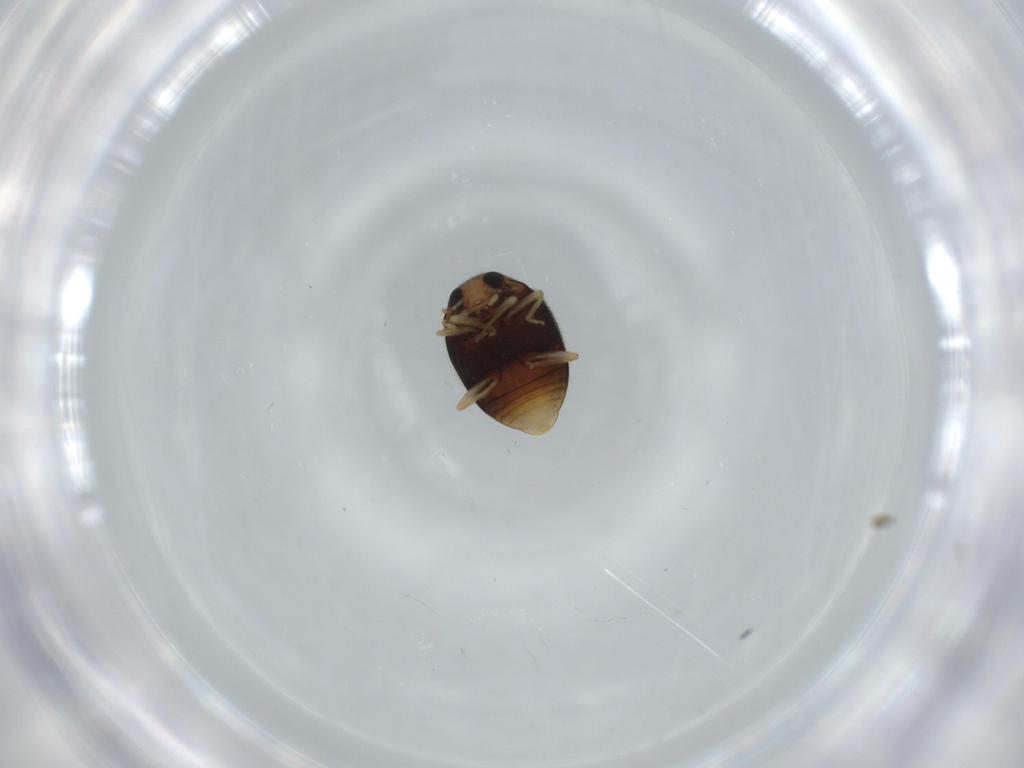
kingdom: Animalia
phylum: Arthropoda
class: Insecta
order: Coleoptera
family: Coccinellidae
